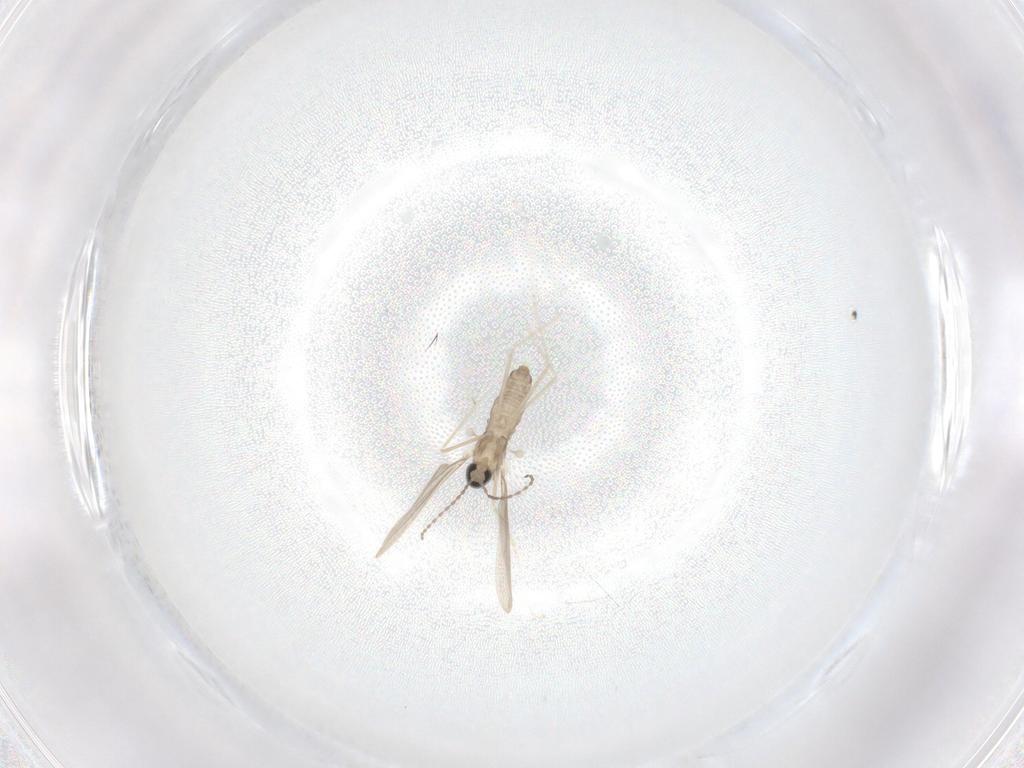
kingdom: Animalia
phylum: Arthropoda
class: Insecta
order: Diptera
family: Cecidomyiidae
